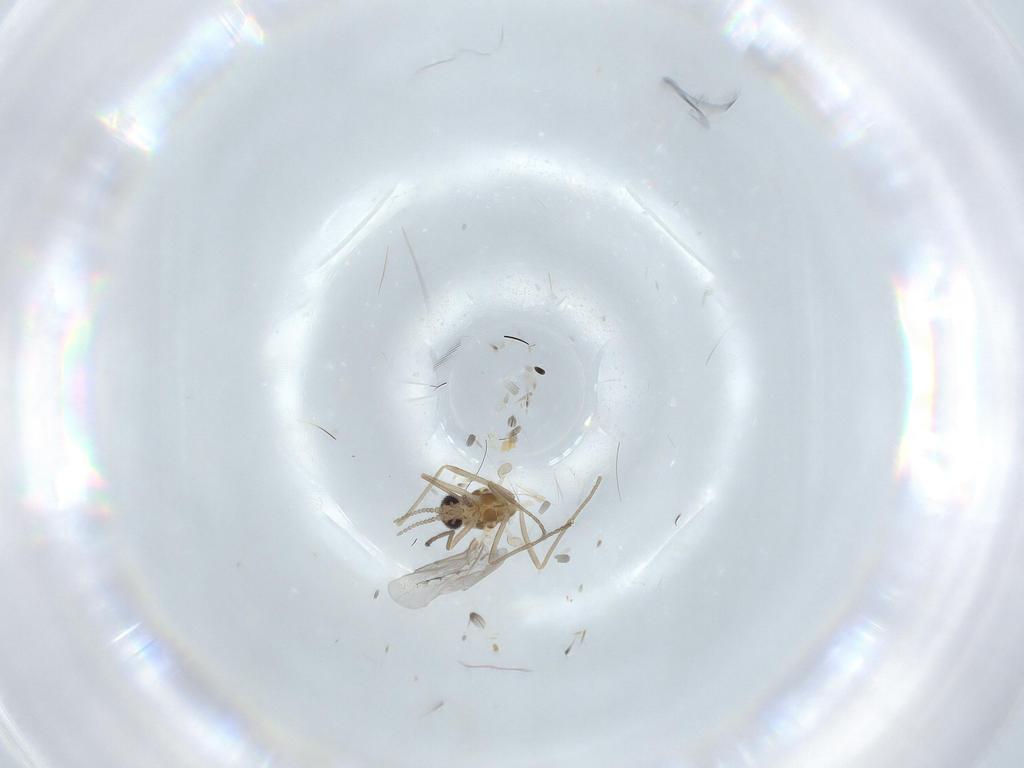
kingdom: Animalia
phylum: Arthropoda
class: Insecta
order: Diptera
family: Cecidomyiidae
